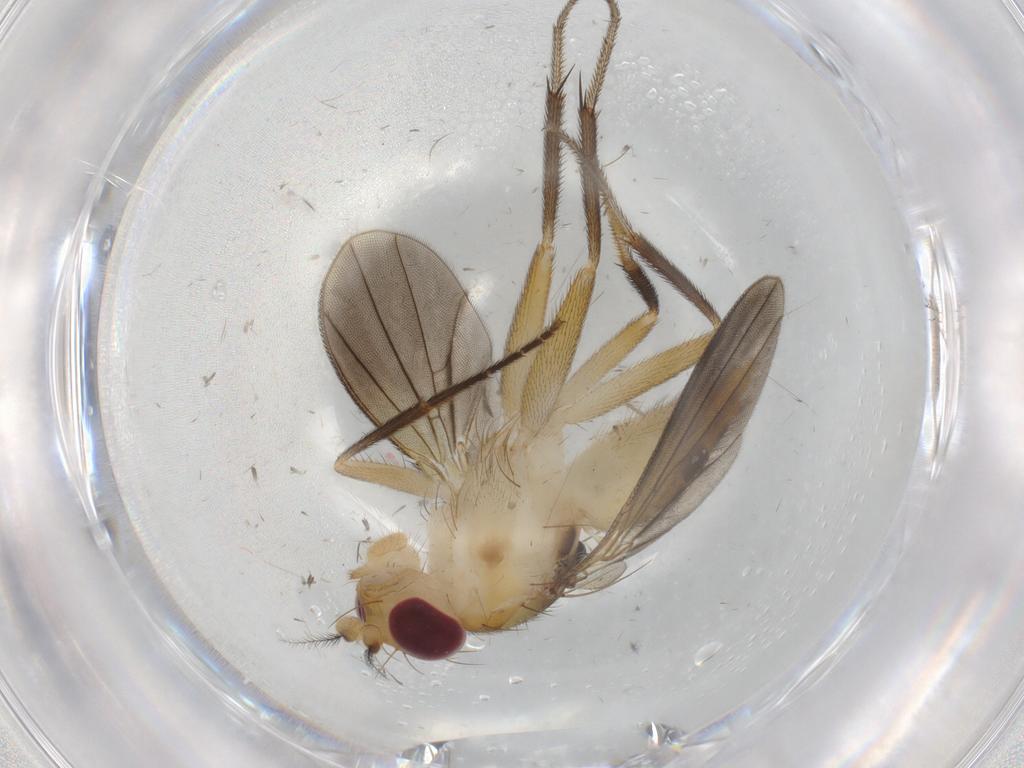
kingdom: Animalia
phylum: Arthropoda
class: Insecta
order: Diptera
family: Clusiidae
